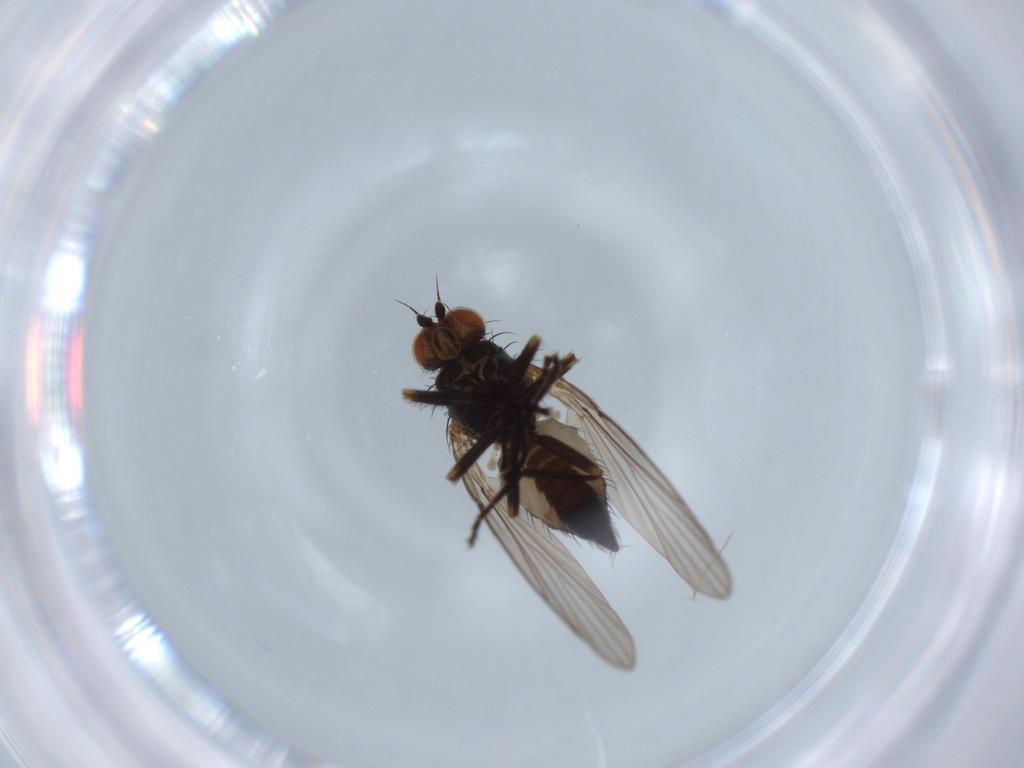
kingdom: Animalia
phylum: Arthropoda
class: Insecta
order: Diptera
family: Agromyzidae
